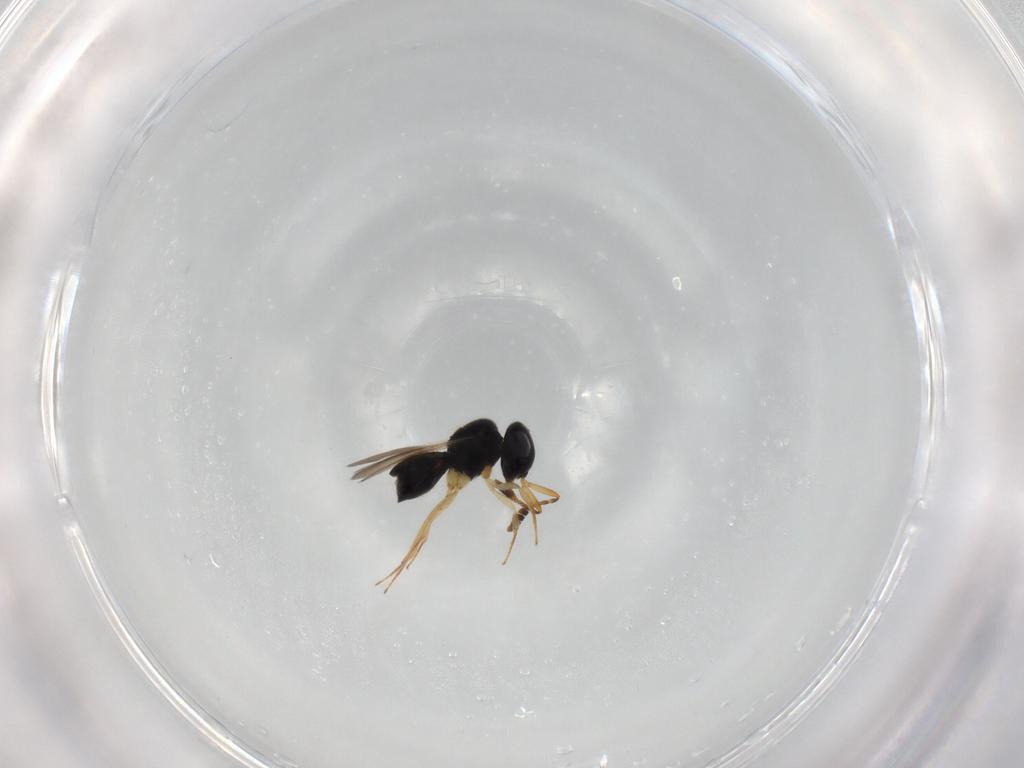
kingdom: Animalia
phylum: Arthropoda
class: Insecta
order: Hymenoptera
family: Scelionidae
